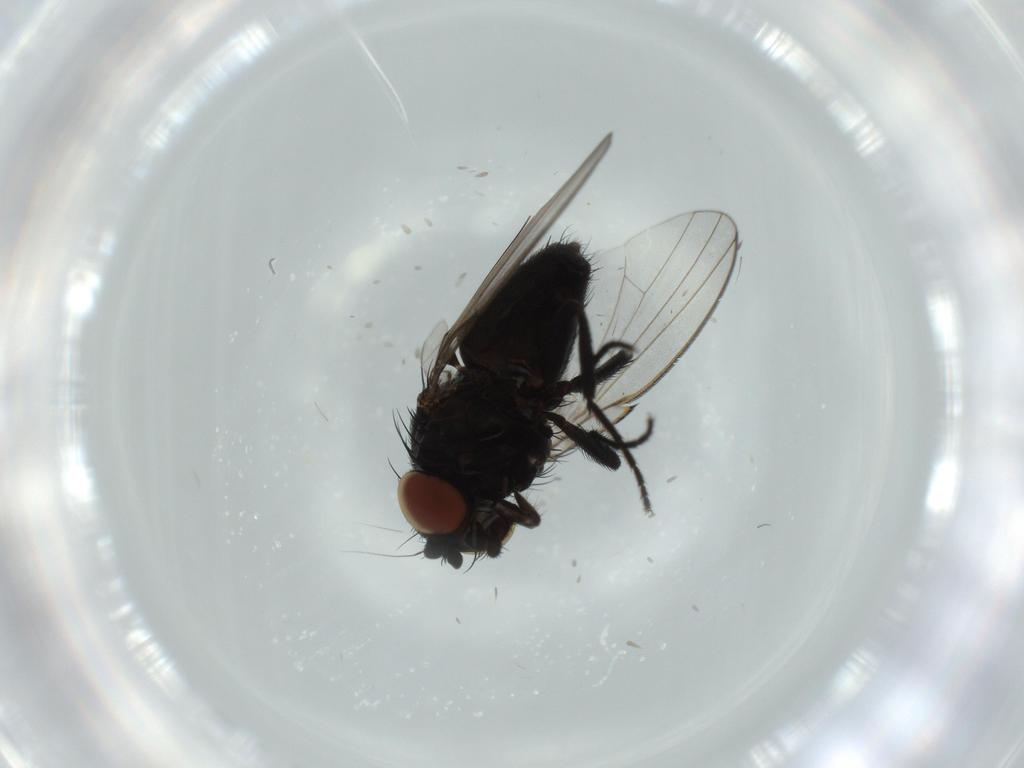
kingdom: Animalia
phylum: Arthropoda
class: Insecta
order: Diptera
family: Milichiidae
